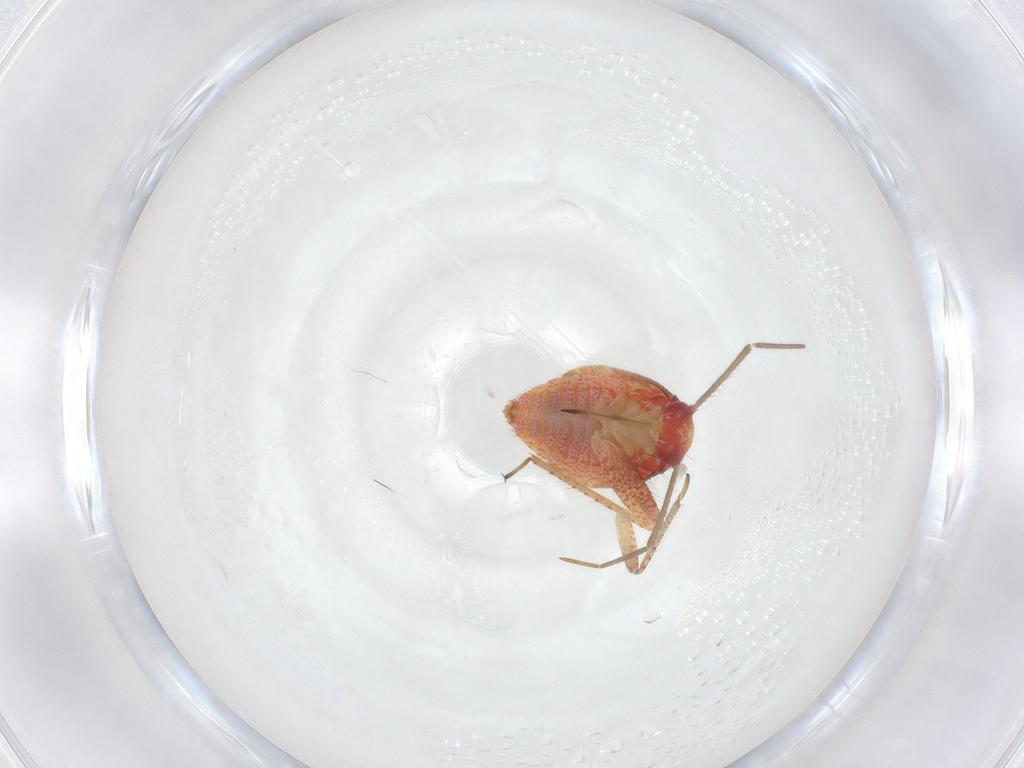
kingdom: Animalia
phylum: Arthropoda
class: Insecta
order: Hemiptera
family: Miridae
